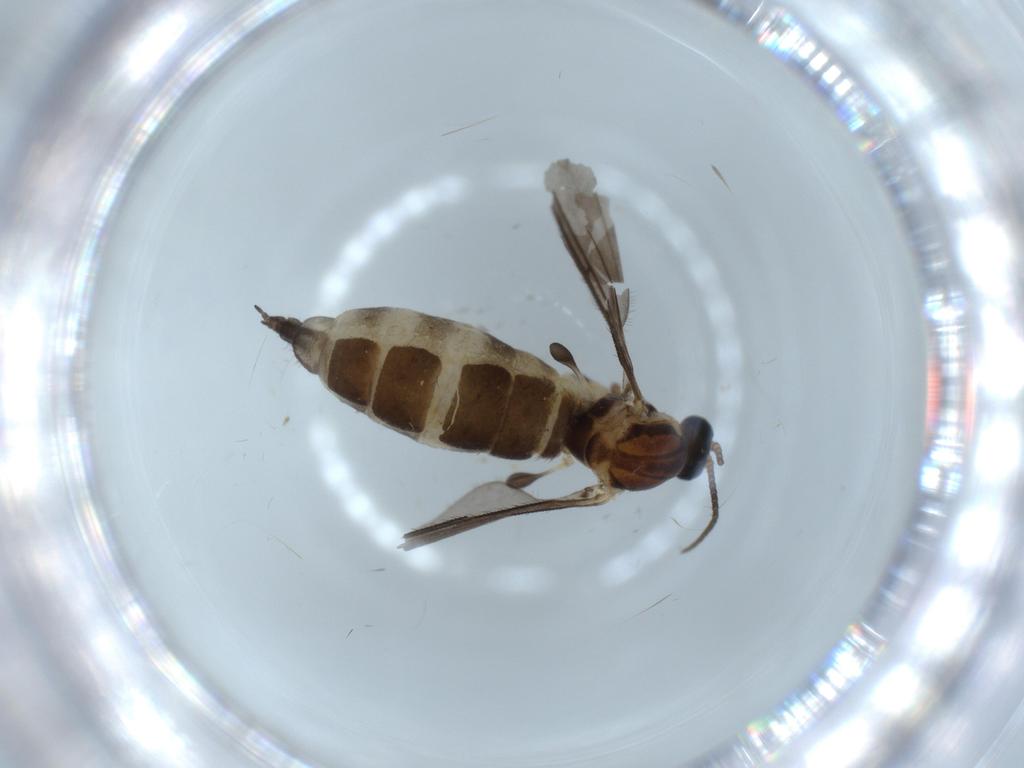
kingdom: Animalia
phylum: Arthropoda
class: Insecta
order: Diptera
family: Sciaridae
